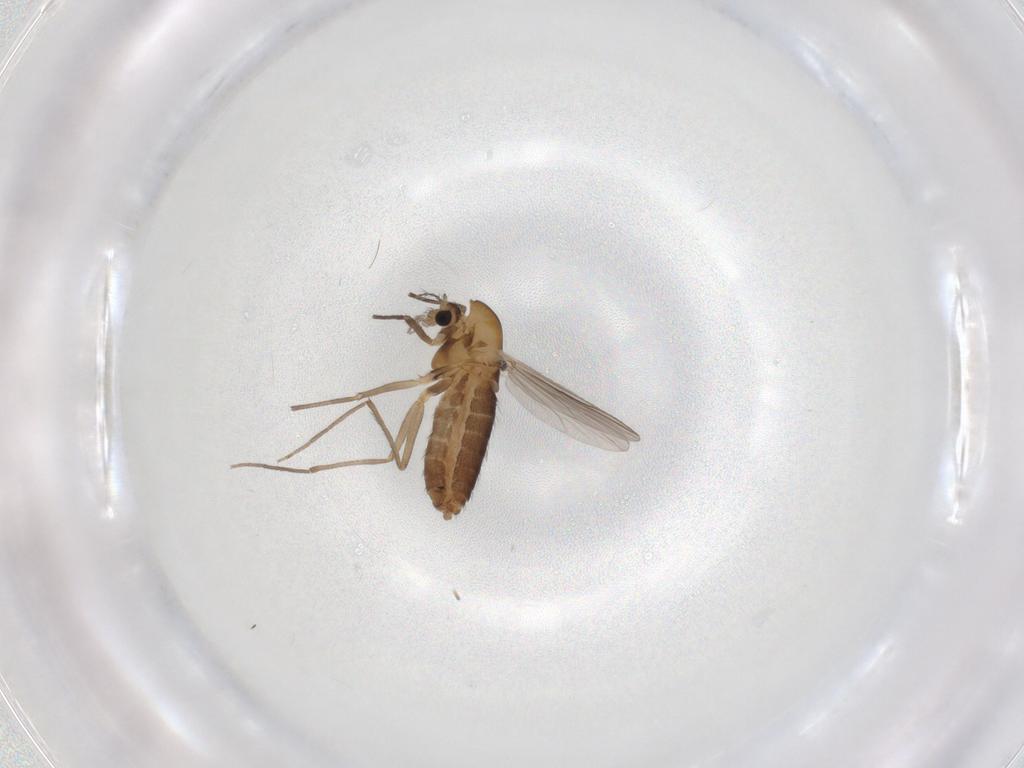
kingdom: Animalia
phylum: Arthropoda
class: Insecta
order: Diptera
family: Chironomidae
